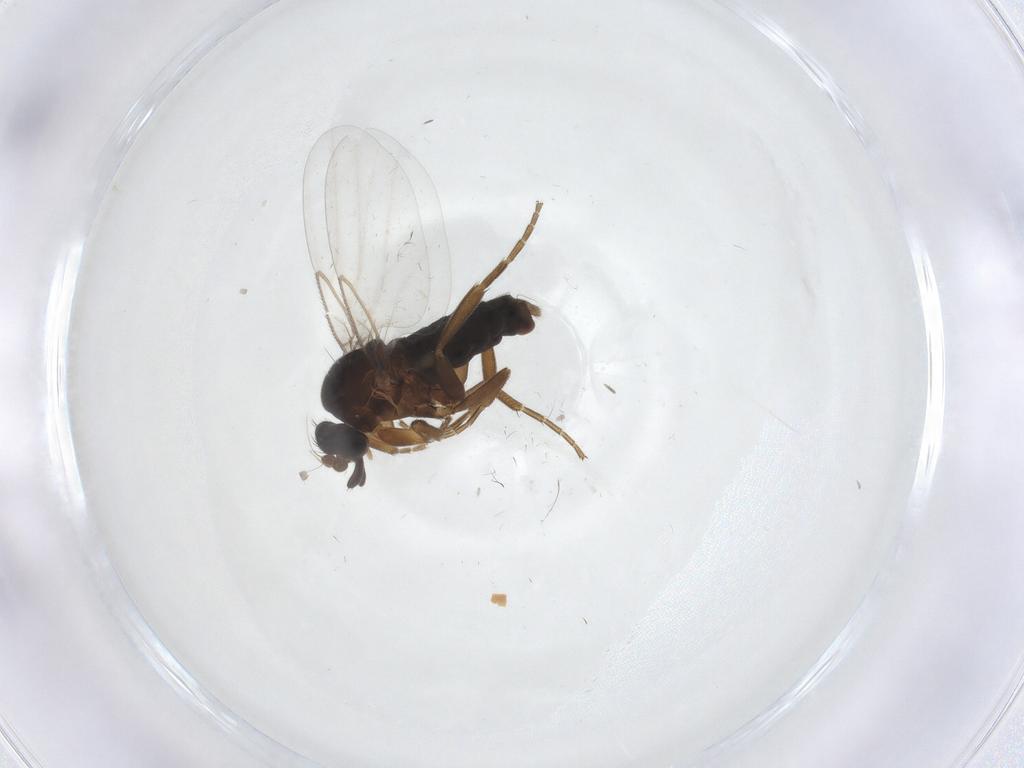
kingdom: Animalia
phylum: Arthropoda
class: Insecta
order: Diptera
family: Phoridae
